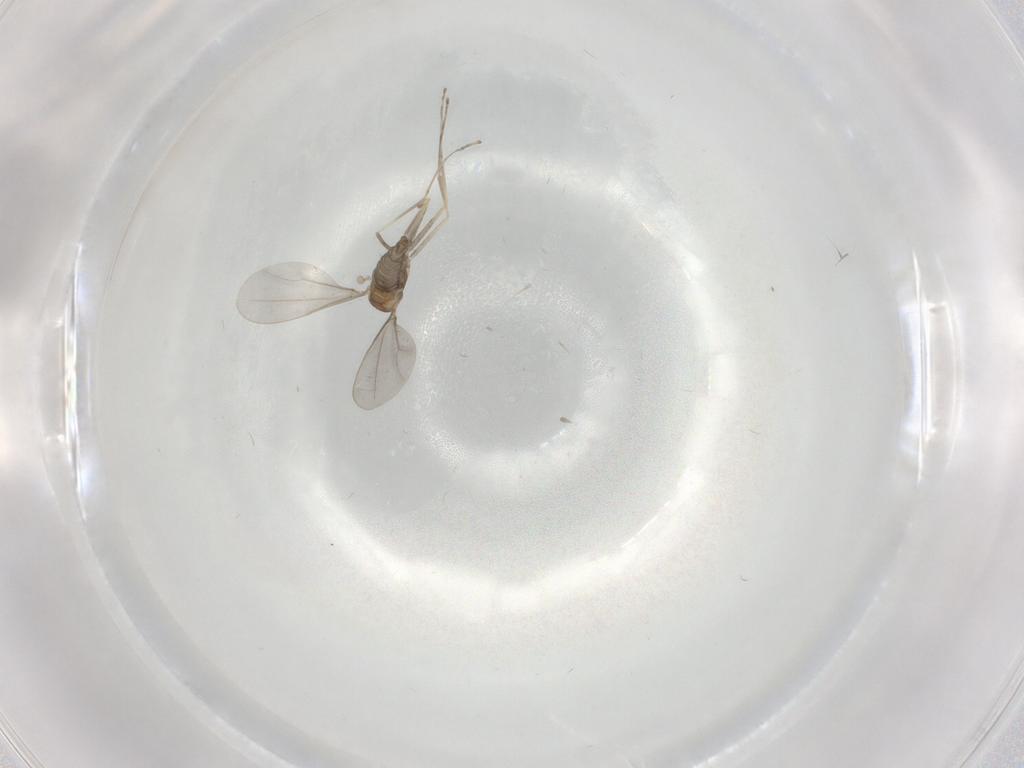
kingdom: Animalia
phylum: Arthropoda
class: Insecta
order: Diptera
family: Cecidomyiidae
